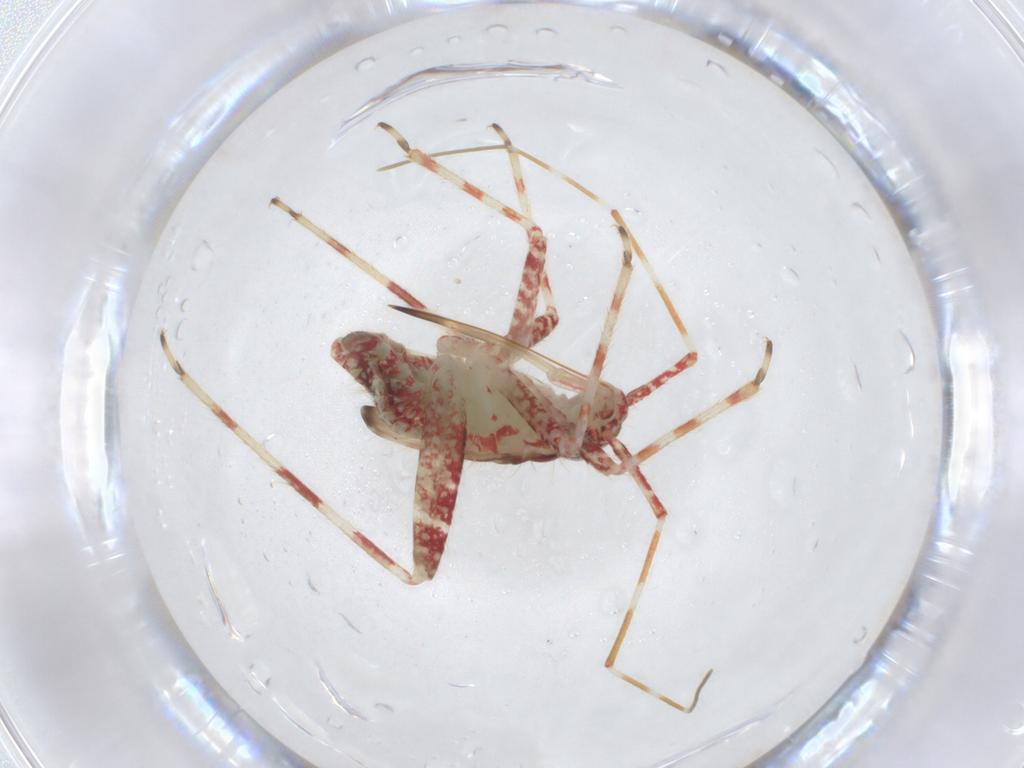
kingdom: Animalia
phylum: Arthropoda
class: Insecta
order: Hemiptera
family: Miridae
